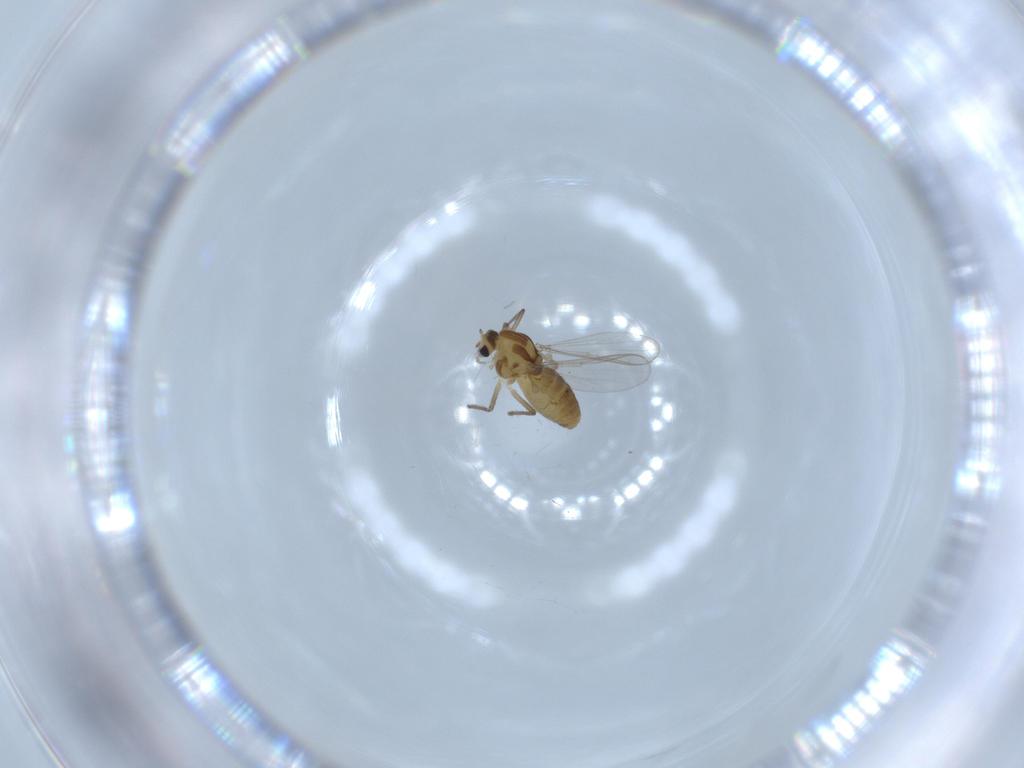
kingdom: Animalia
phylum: Arthropoda
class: Insecta
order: Diptera
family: Chironomidae
